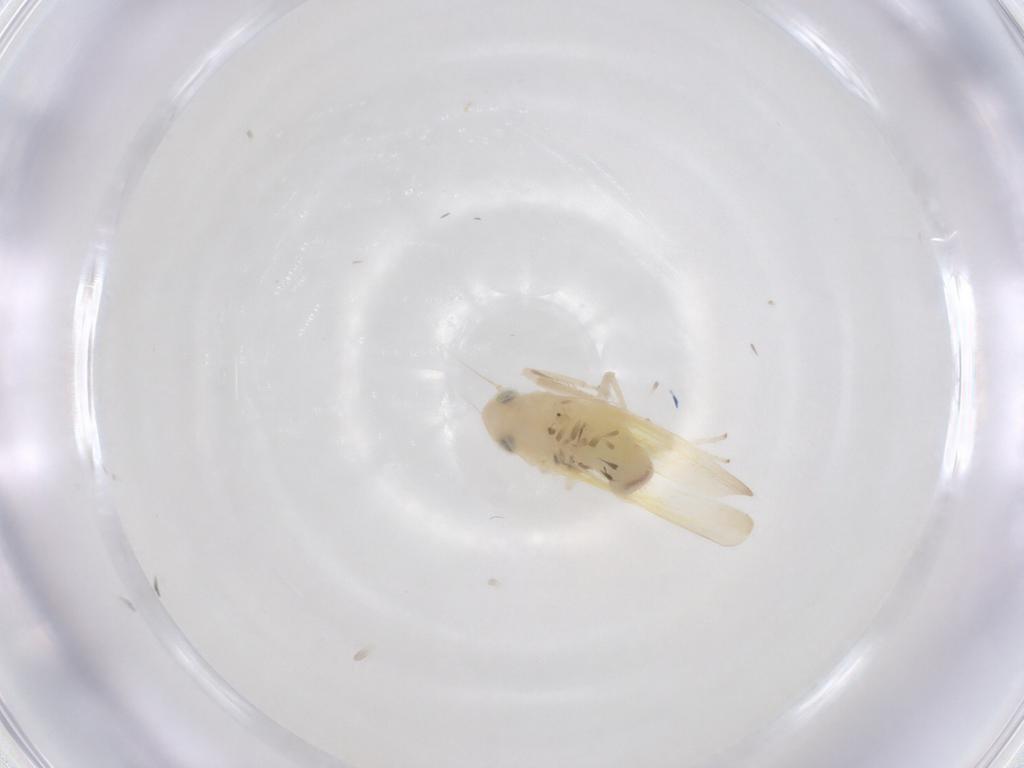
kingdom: Animalia
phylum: Arthropoda
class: Insecta
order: Hemiptera
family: Cicadellidae
